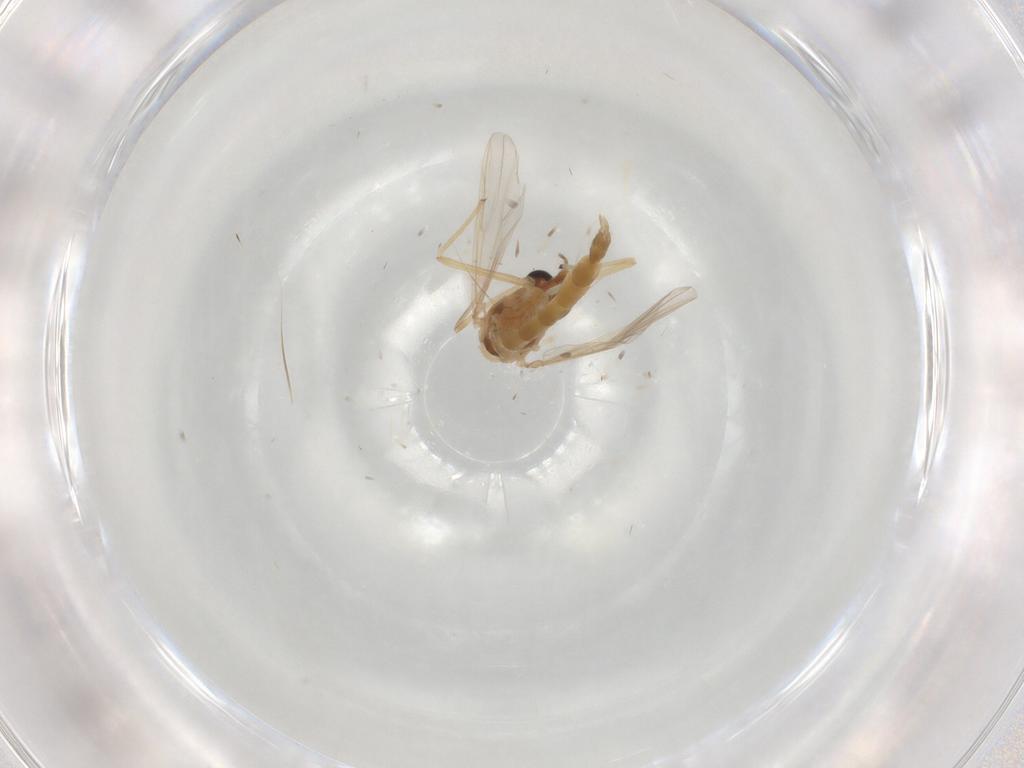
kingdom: Animalia
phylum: Arthropoda
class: Insecta
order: Diptera
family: Chironomidae
